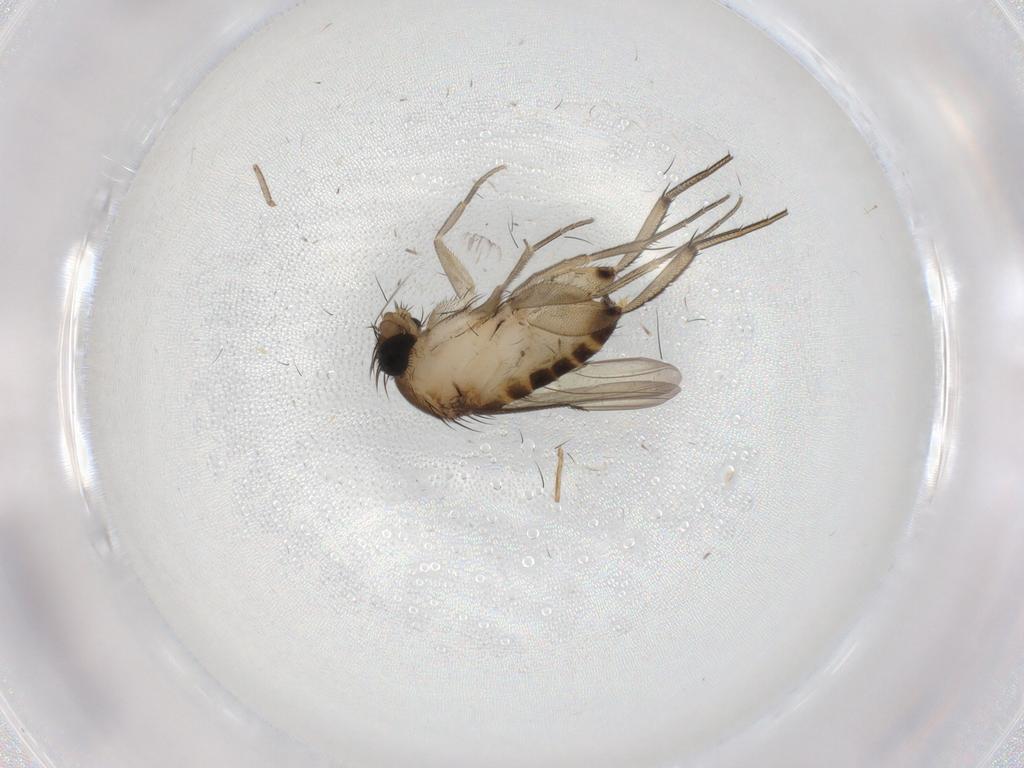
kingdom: Animalia
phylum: Arthropoda
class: Insecta
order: Diptera
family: Phoridae
